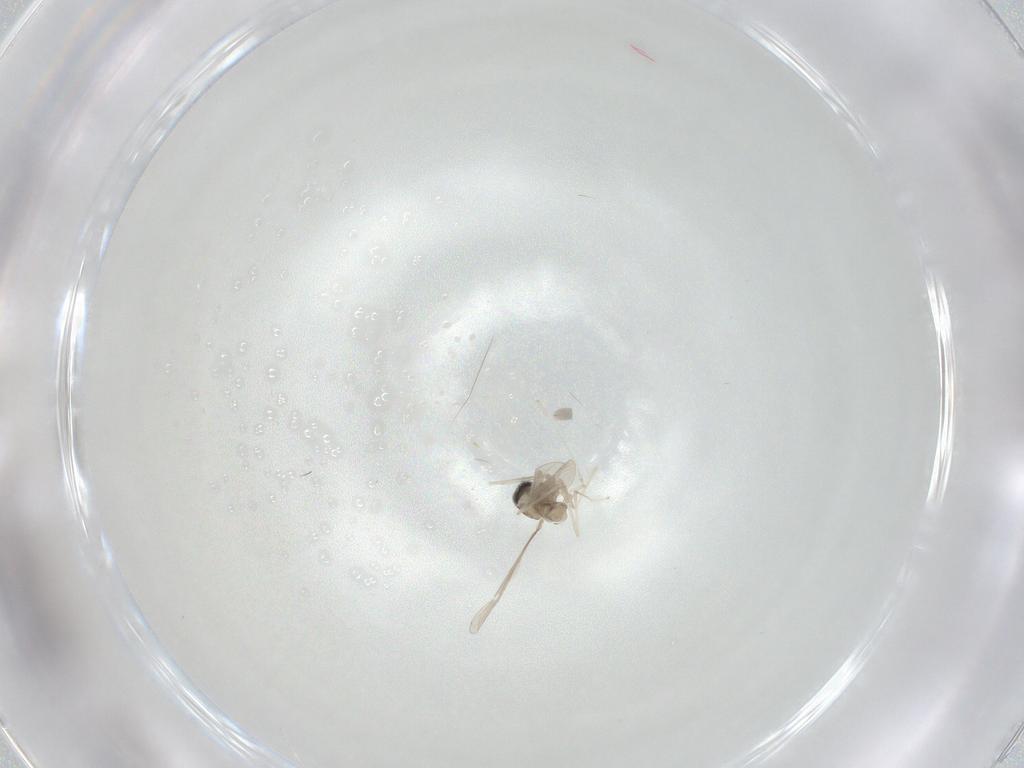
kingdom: Animalia
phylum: Arthropoda
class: Insecta
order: Diptera
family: Cecidomyiidae
